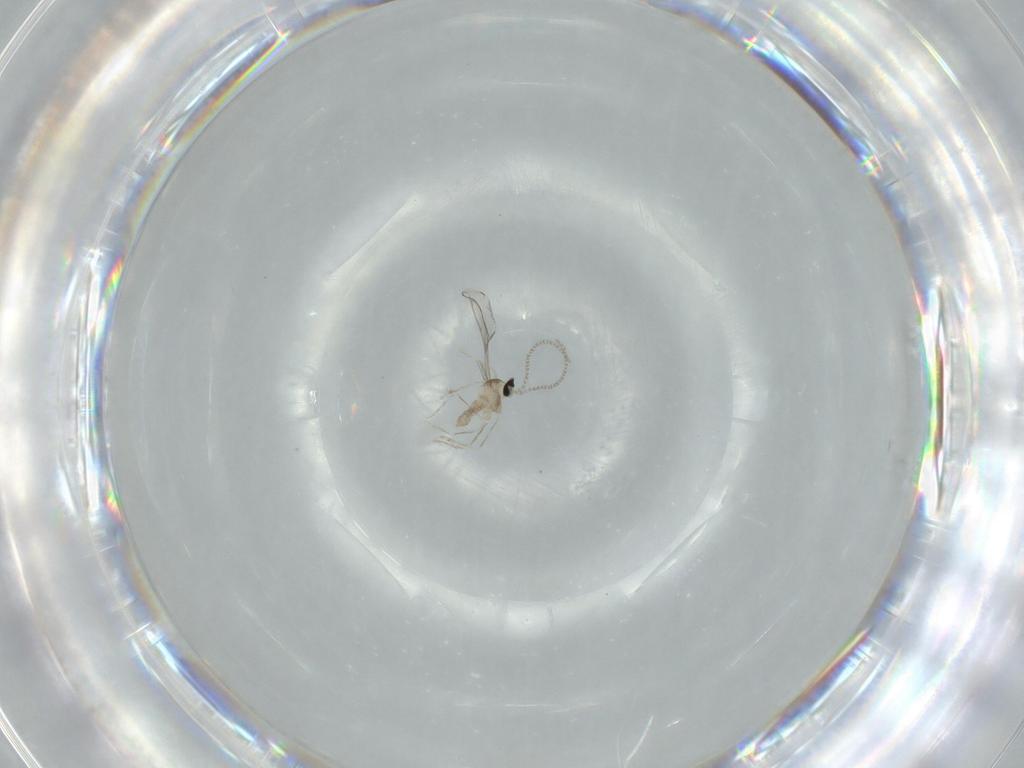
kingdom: Animalia
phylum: Arthropoda
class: Insecta
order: Diptera
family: Cecidomyiidae
